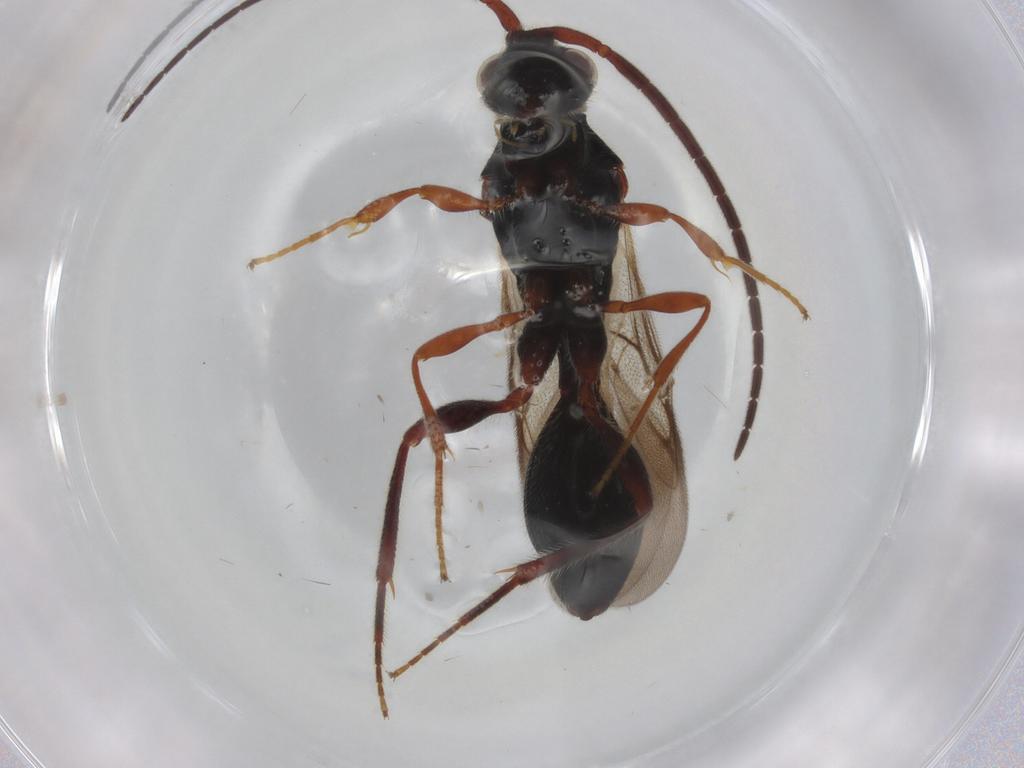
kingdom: Animalia
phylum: Arthropoda
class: Insecta
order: Hymenoptera
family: Diapriidae
